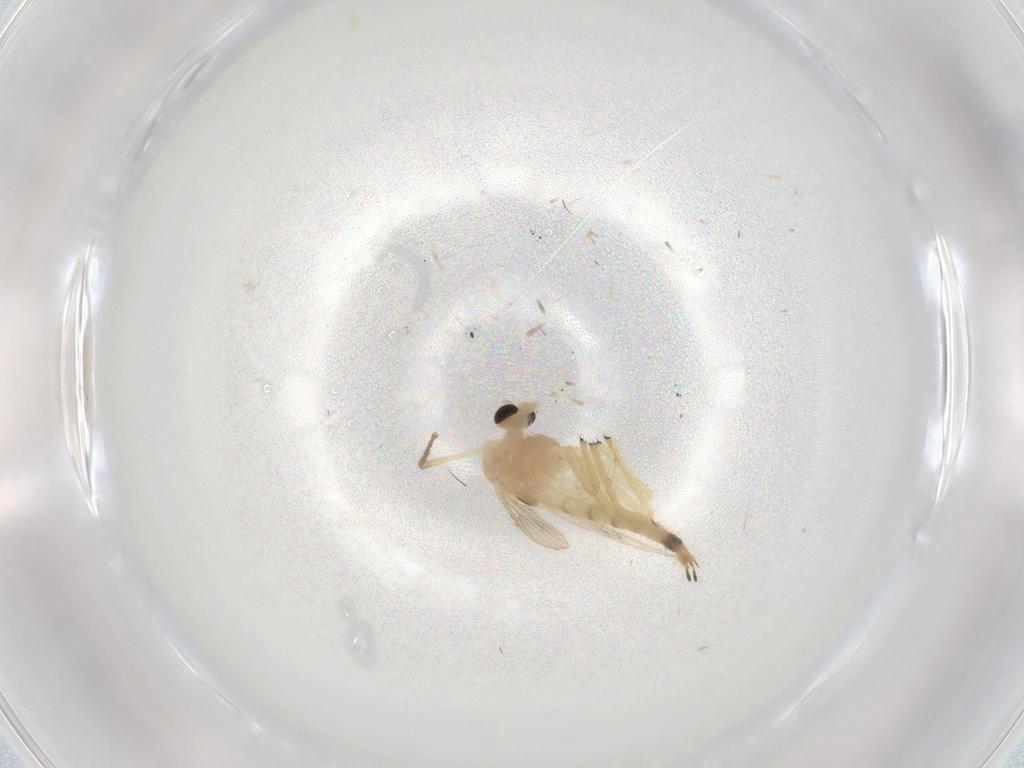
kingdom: Animalia
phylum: Arthropoda
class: Insecta
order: Diptera
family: Chironomidae
